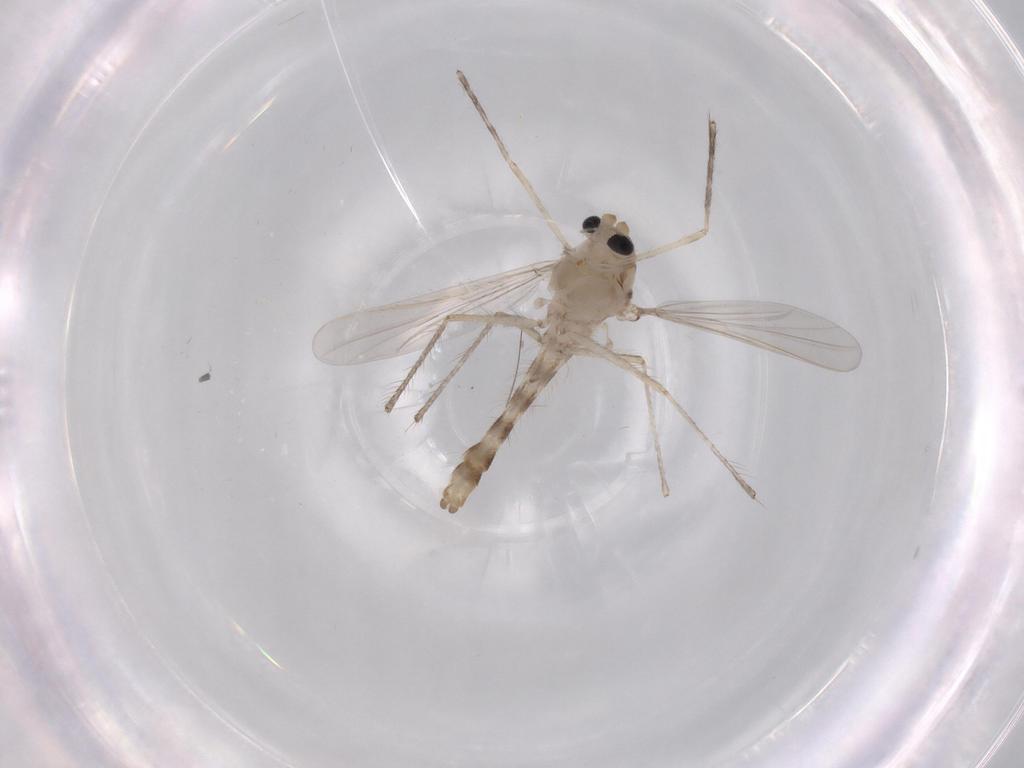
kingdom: Animalia
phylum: Arthropoda
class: Insecta
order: Diptera
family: Chironomidae
